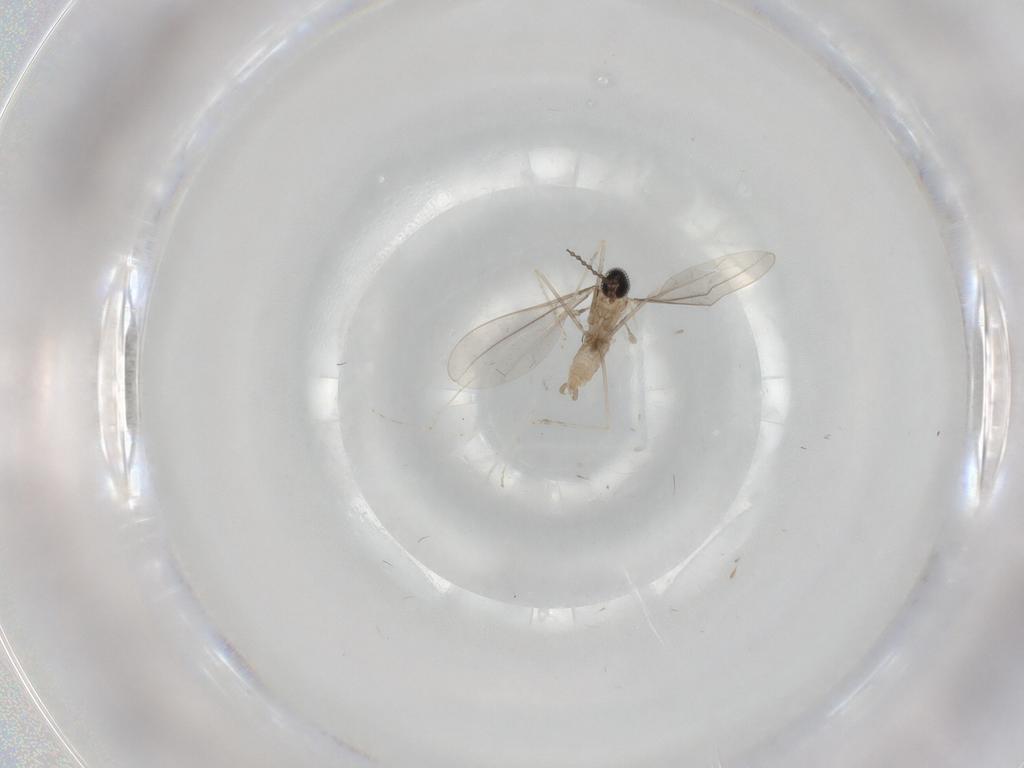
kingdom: Animalia
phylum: Arthropoda
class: Insecta
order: Diptera
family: Cecidomyiidae
